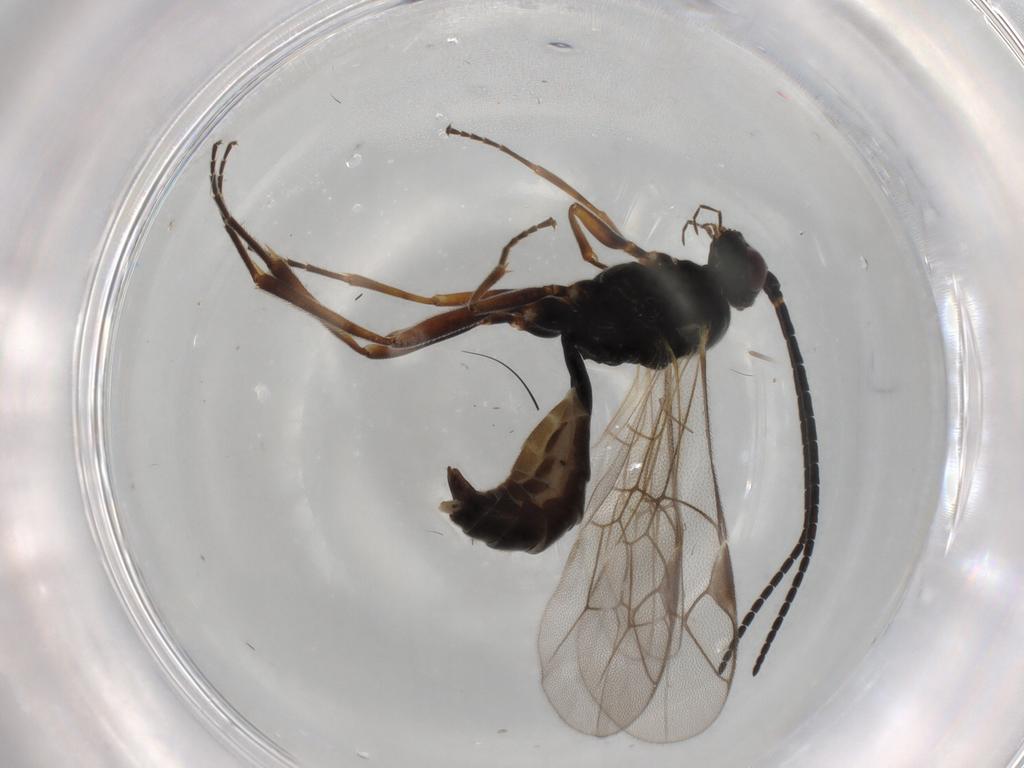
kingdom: Animalia
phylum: Arthropoda
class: Insecta
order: Hymenoptera
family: Ichneumonidae
